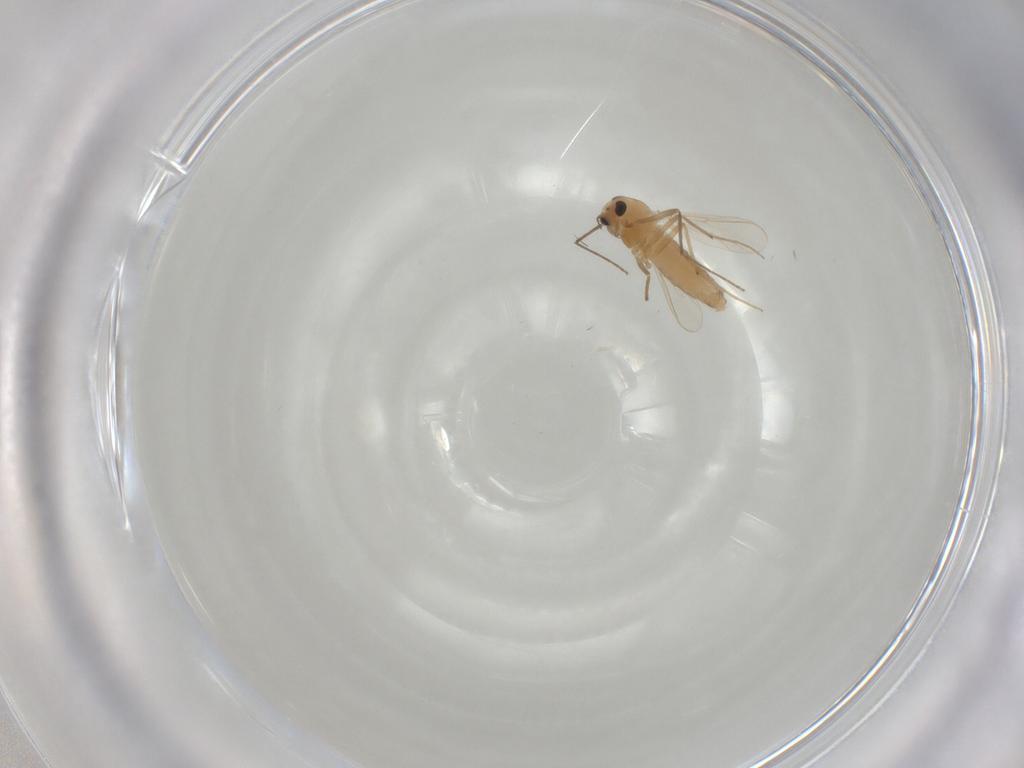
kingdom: Animalia
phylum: Arthropoda
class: Insecta
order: Diptera
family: Chironomidae
